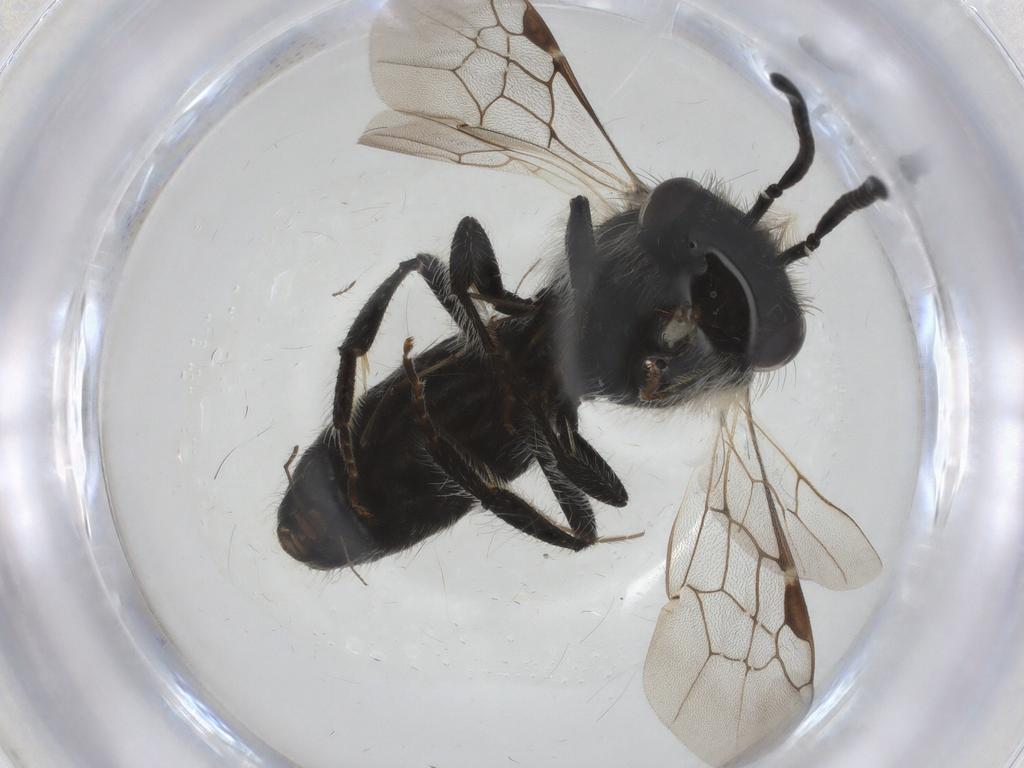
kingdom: Animalia
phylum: Arthropoda
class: Insecta
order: Hymenoptera
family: Andrenidae
